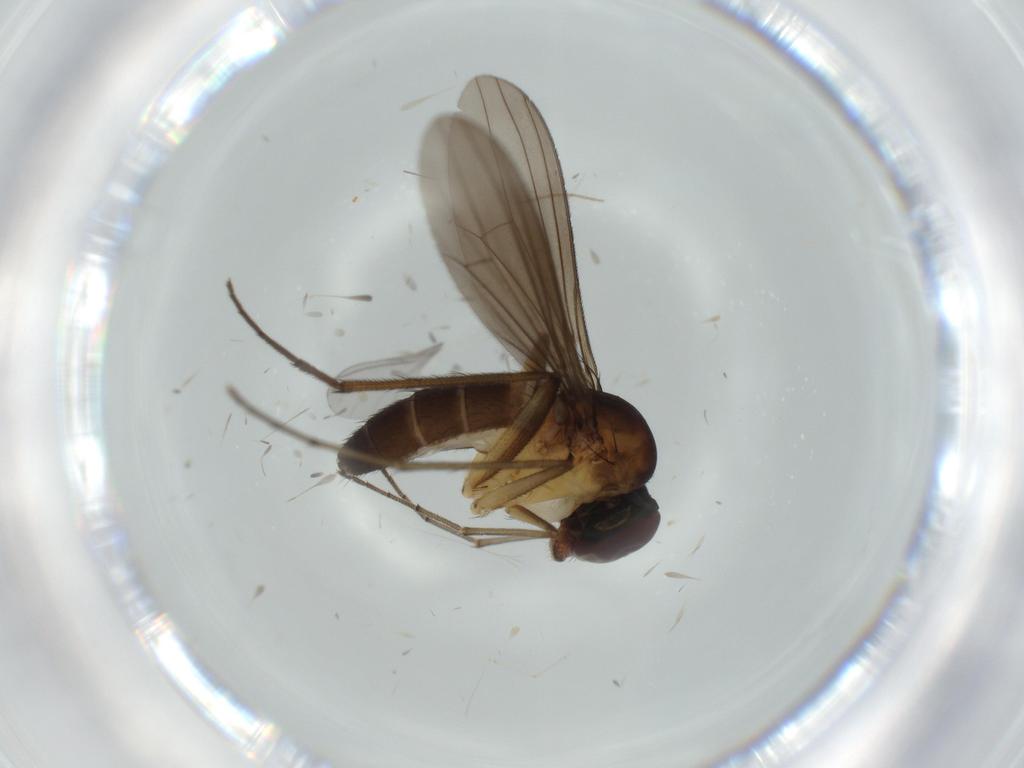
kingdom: Animalia
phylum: Arthropoda
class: Insecta
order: Diptera
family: Dolichopodidae
